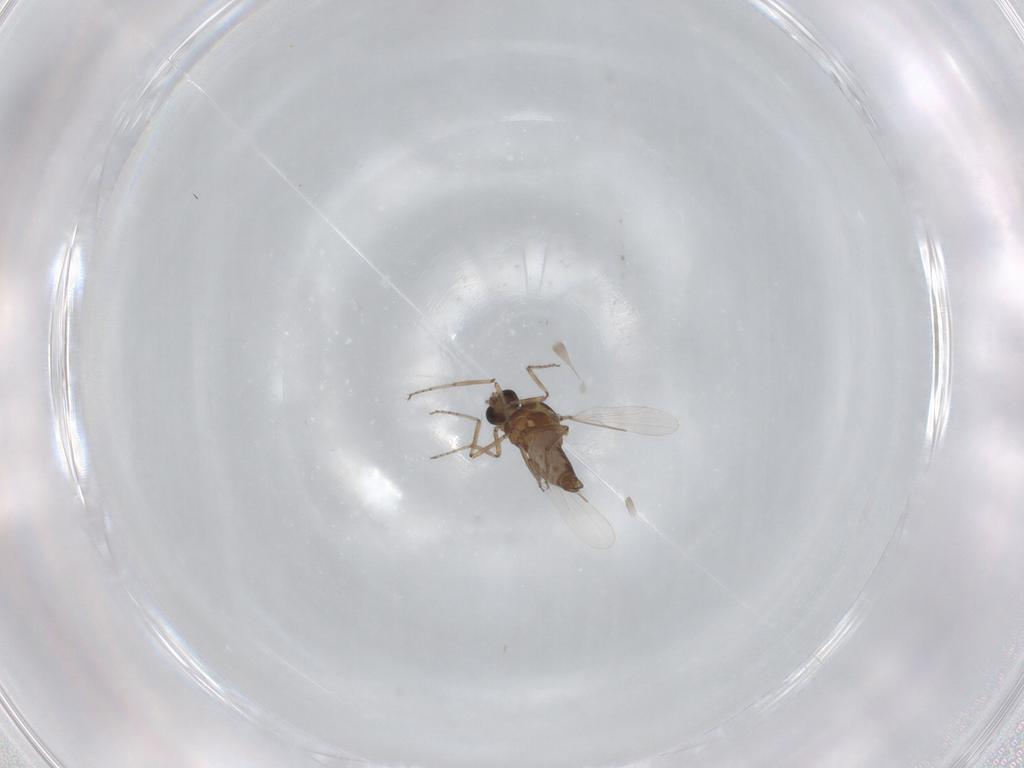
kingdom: Animalia
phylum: Arthropoda
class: Insecta
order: Diptera
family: Ceratopogonidae
